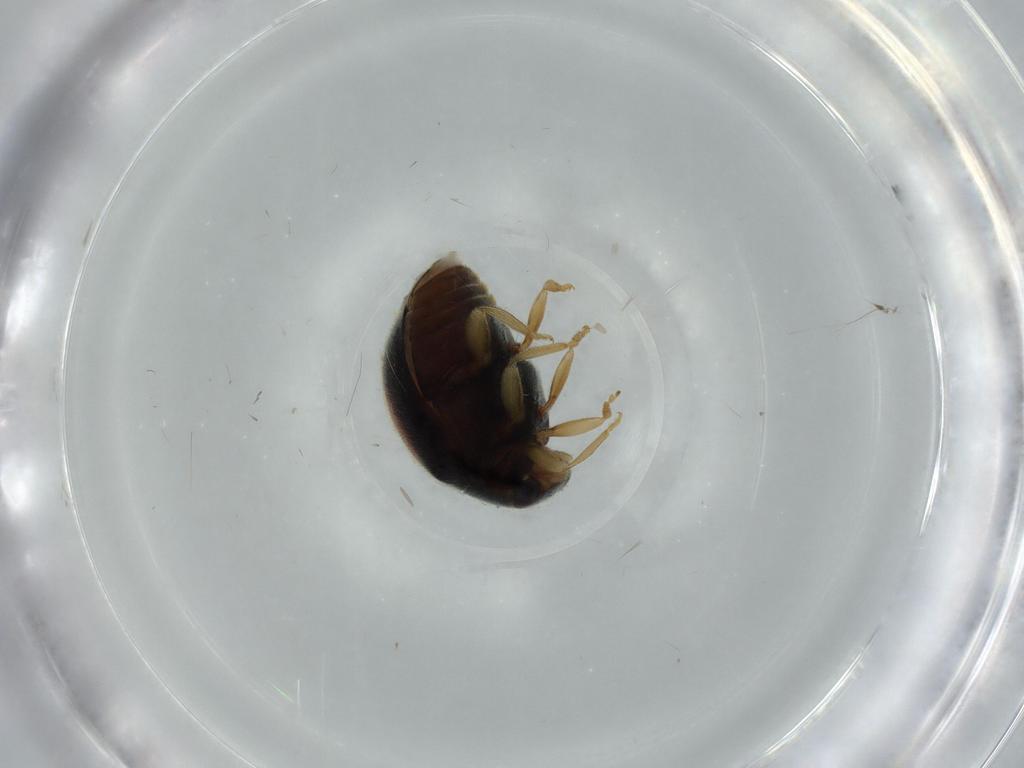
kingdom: Animalia
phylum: Arthropoda
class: Insecta
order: Coleoptera
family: Coccinellidae
